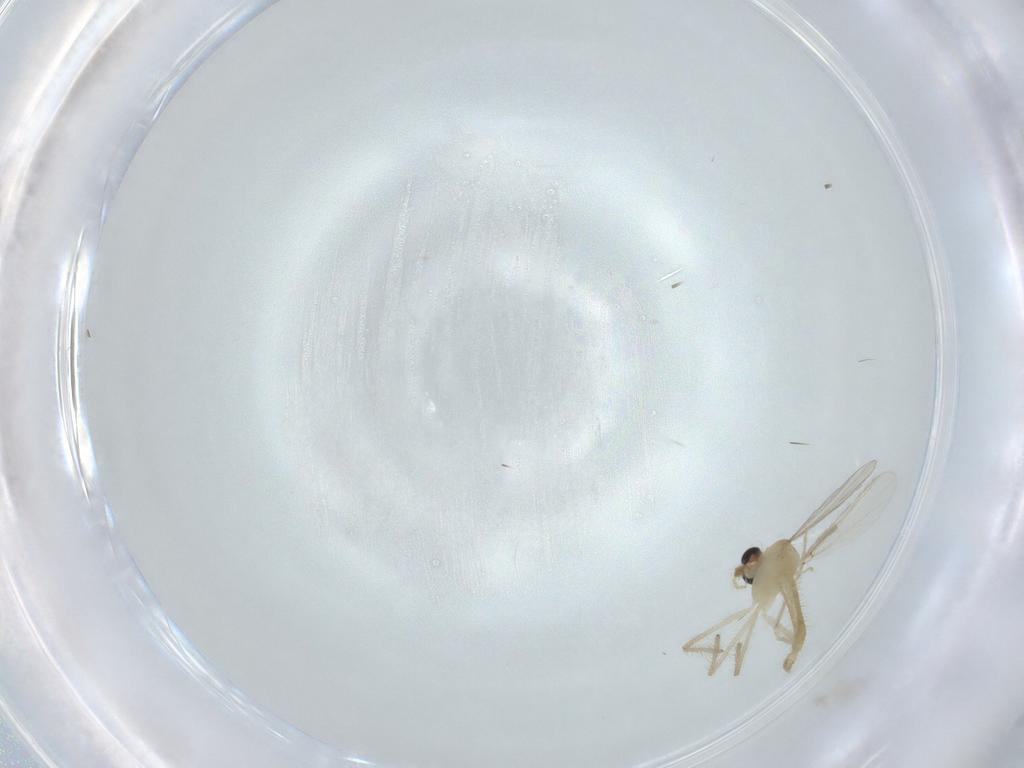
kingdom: Animalia
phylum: Arthropoda
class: Insecta
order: Diptera
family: Chironomidae
